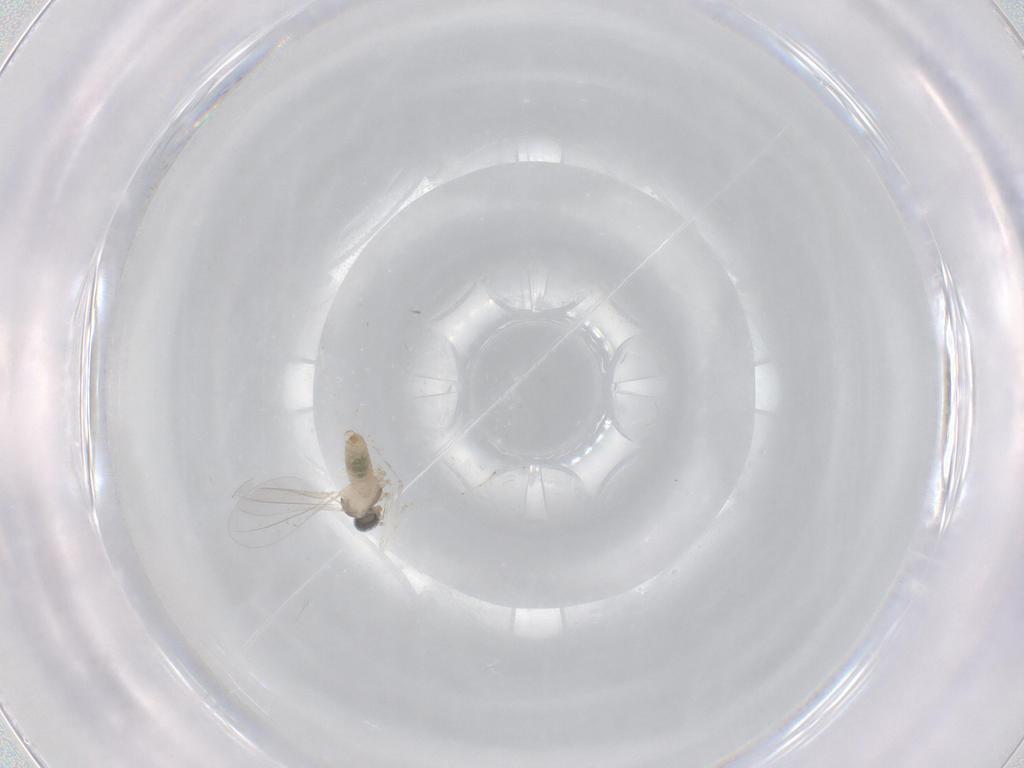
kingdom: Animalia
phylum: Arthropoda
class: Insecta
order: Diptera
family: Cecidomyiidae
